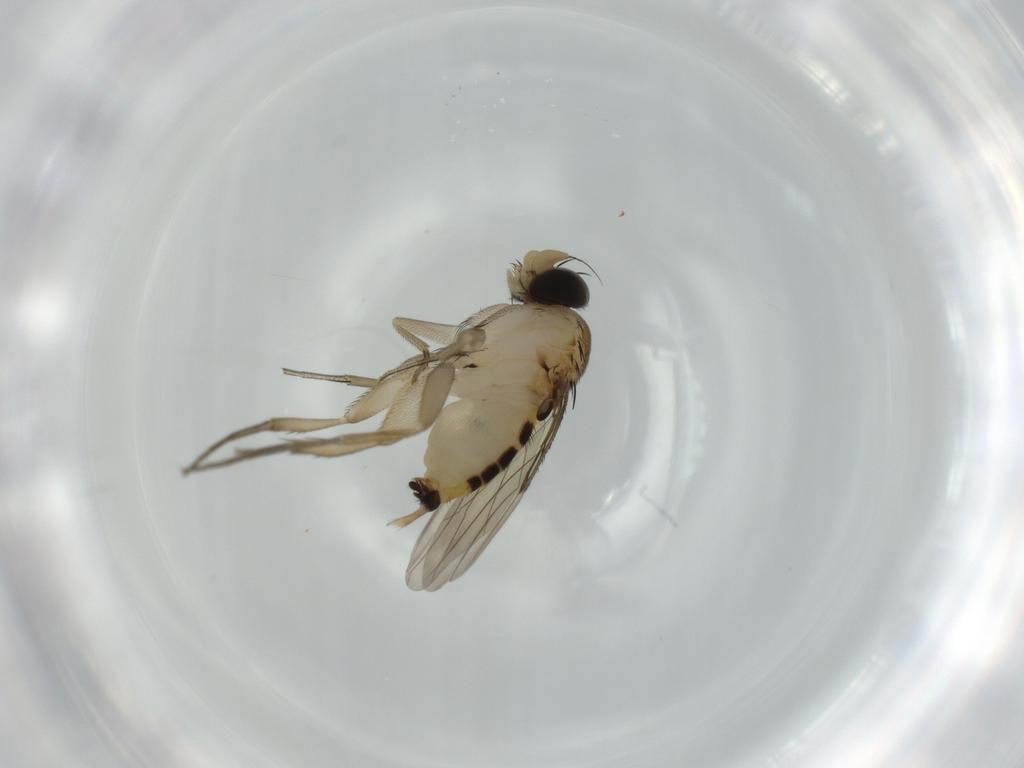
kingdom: Animalia
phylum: Arthropoda
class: Insecta
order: Diptera
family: Phoridae
